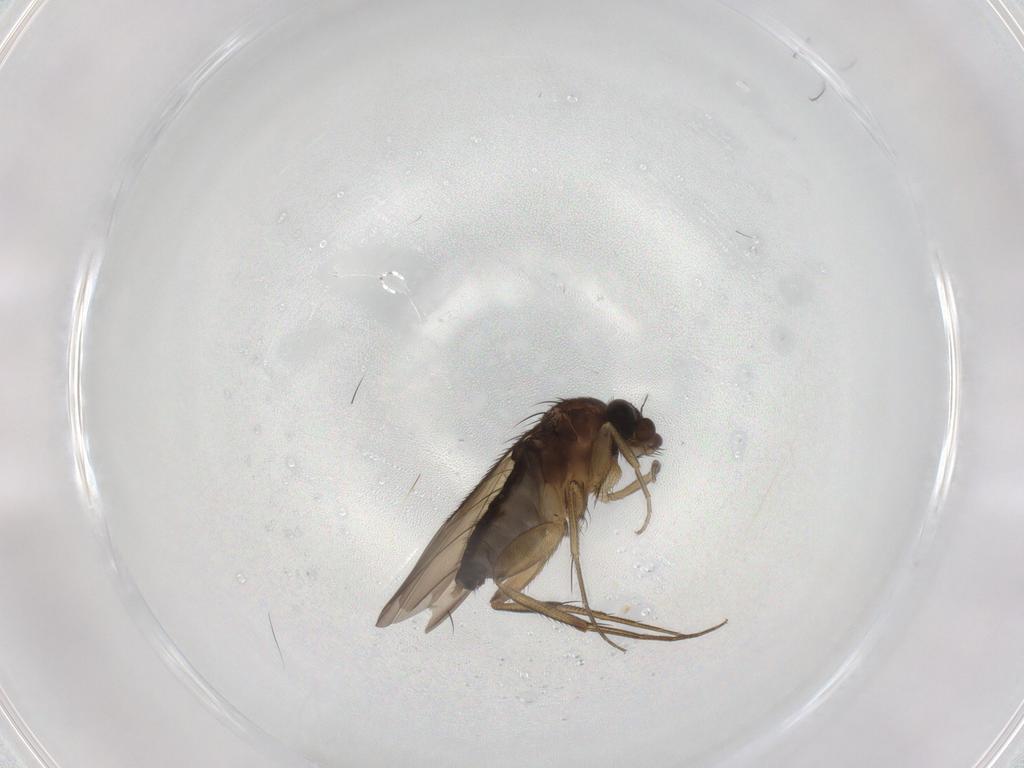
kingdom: Animalia
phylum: Arthropoda
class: Insecta
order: Diptera
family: Phoridae
